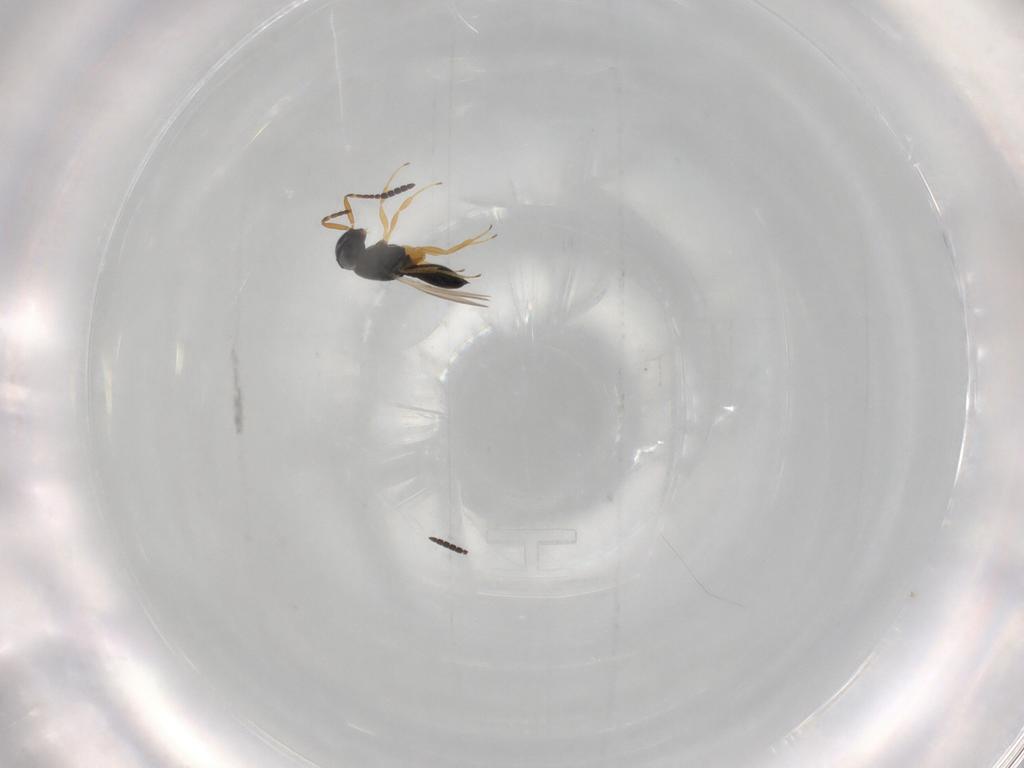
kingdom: Animalia
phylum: Arthropoda
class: Insecta
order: Hymenoptera
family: Scelionidae
